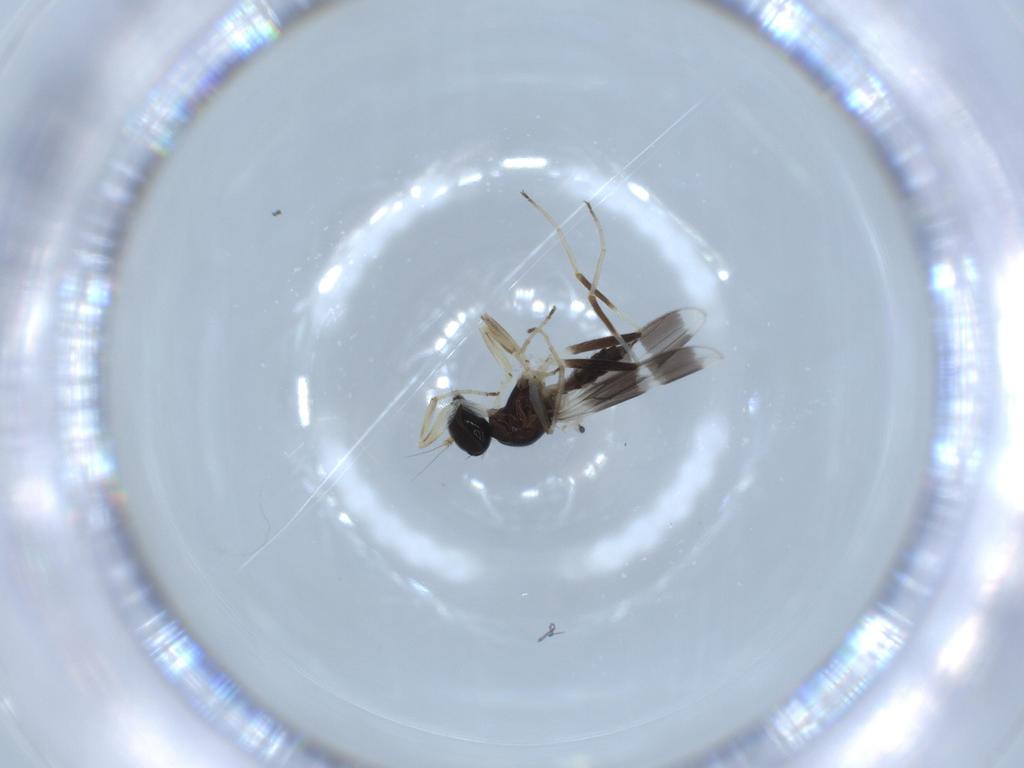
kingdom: Animalia
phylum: Arthropoda
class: Insecta
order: Diptera
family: Hybotidae
